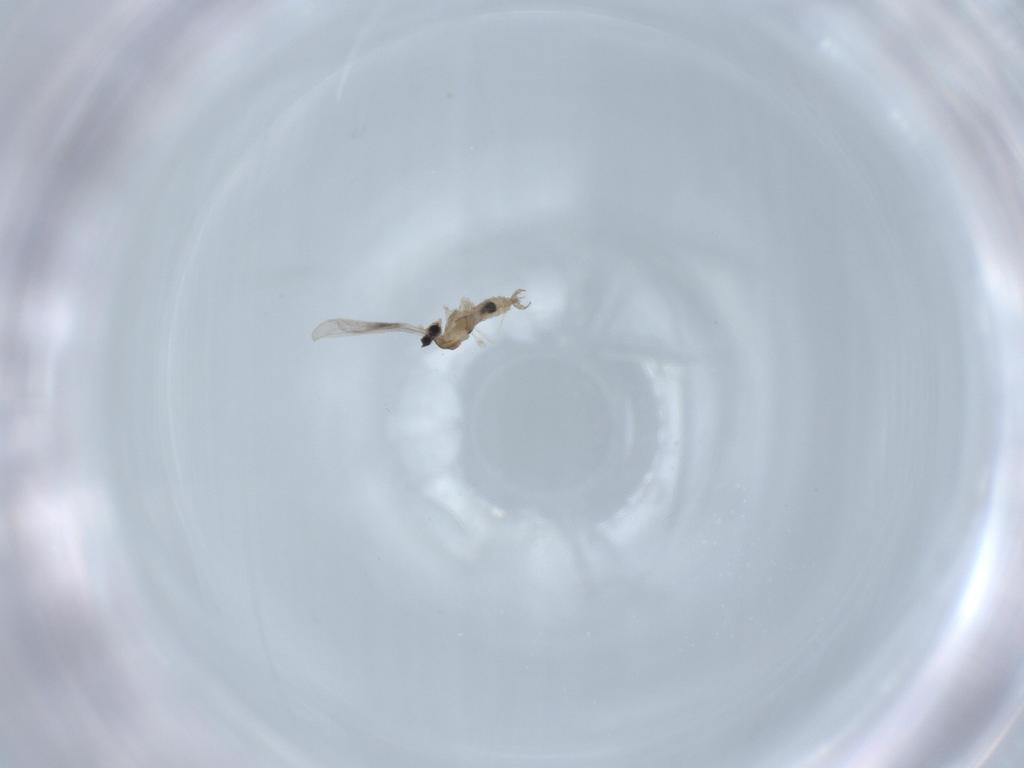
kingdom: Animalia
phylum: Arthropoda
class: Insecta
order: Diptera
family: Cecidomyiidae
